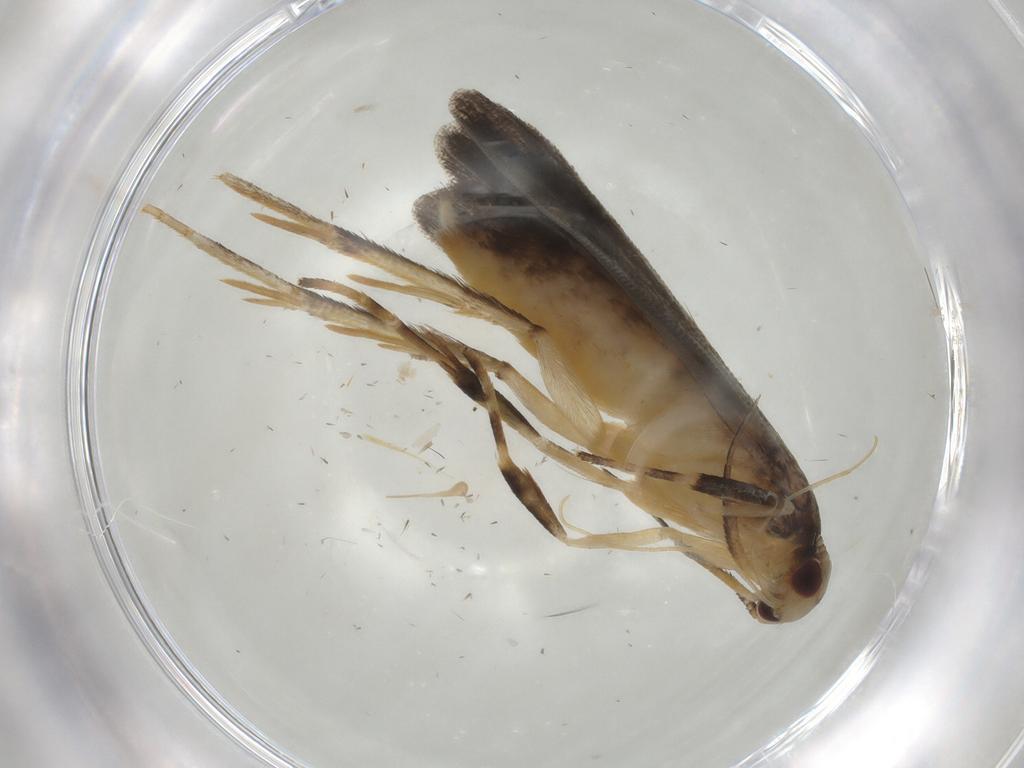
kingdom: Animalia
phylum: Arthropoda
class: Insecta
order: Lepidoptera
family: Gelechiidae
